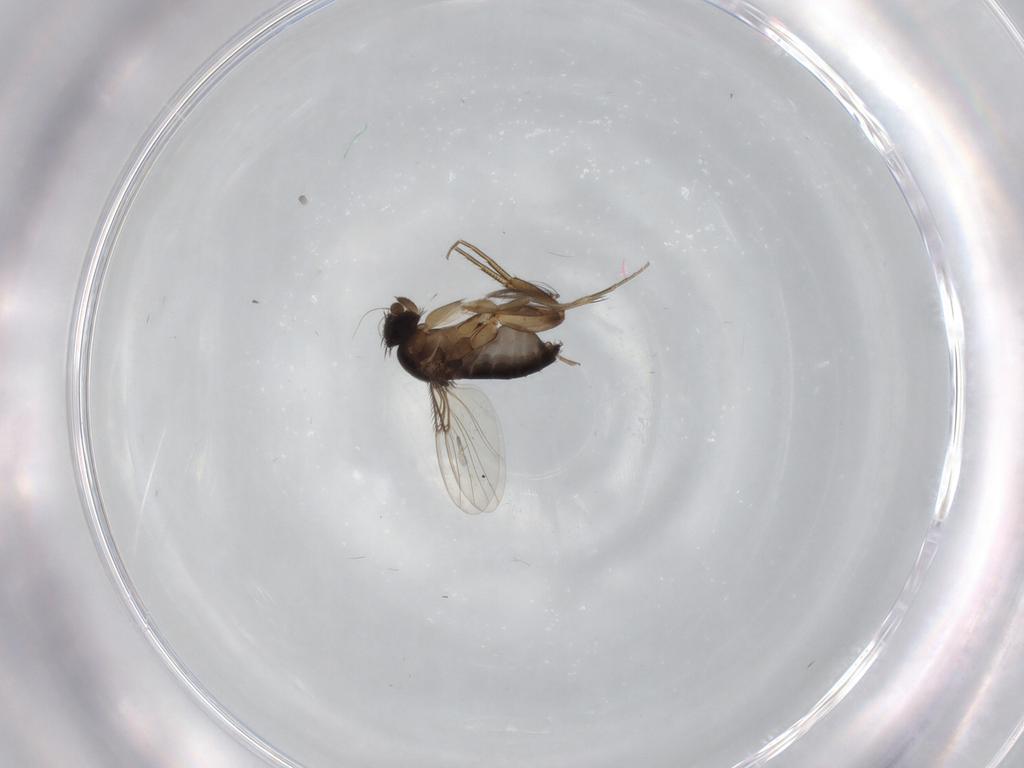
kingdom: Animalia
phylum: Arthropoda
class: Insecta
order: Diptera
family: Phoridae
